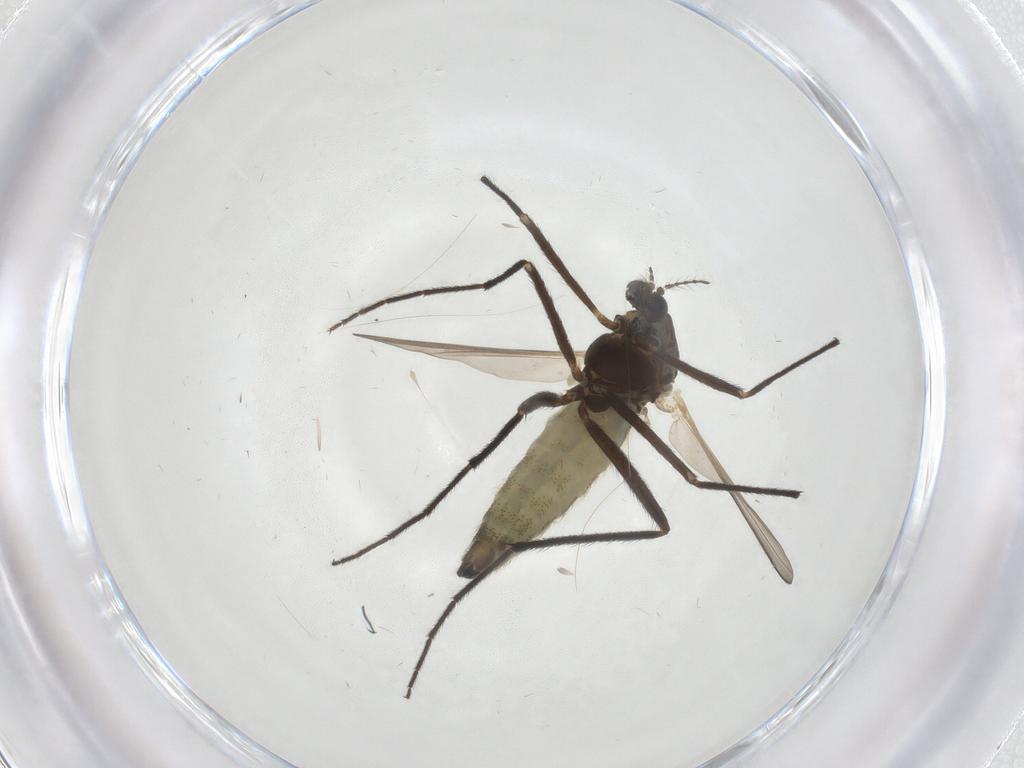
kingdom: Animalia
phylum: Arthropoda
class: Insecta
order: Diptera
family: Chironomidae
